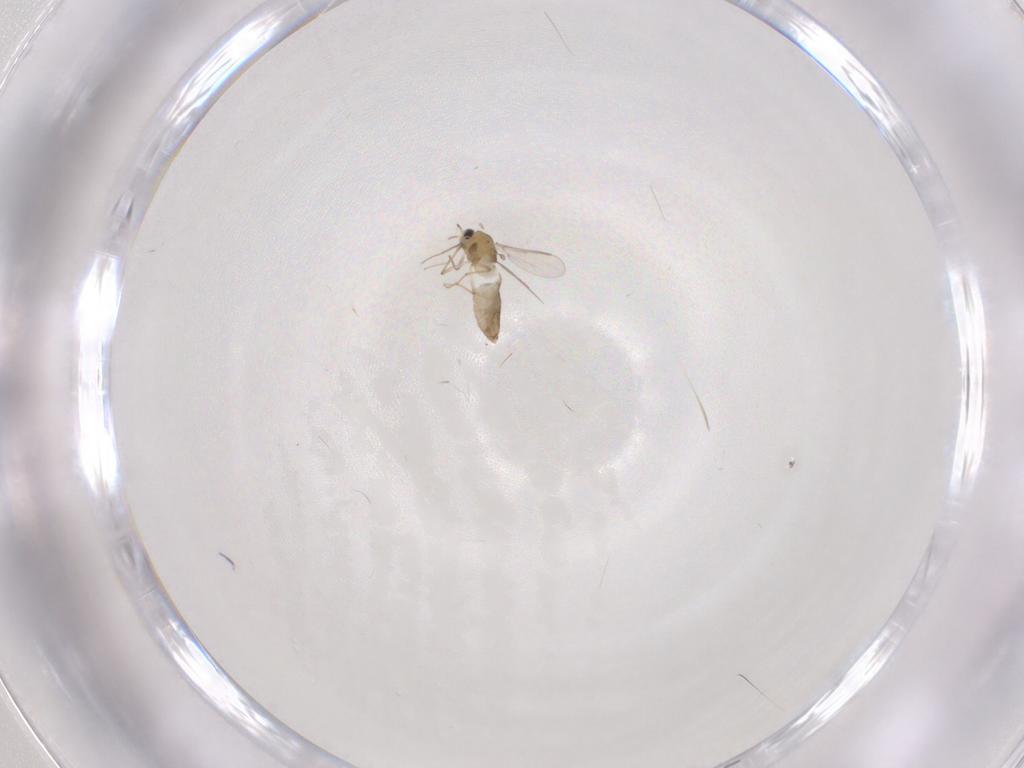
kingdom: Animalia
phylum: Arthropoda
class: Insecta
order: Diptera
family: Chironomidae
